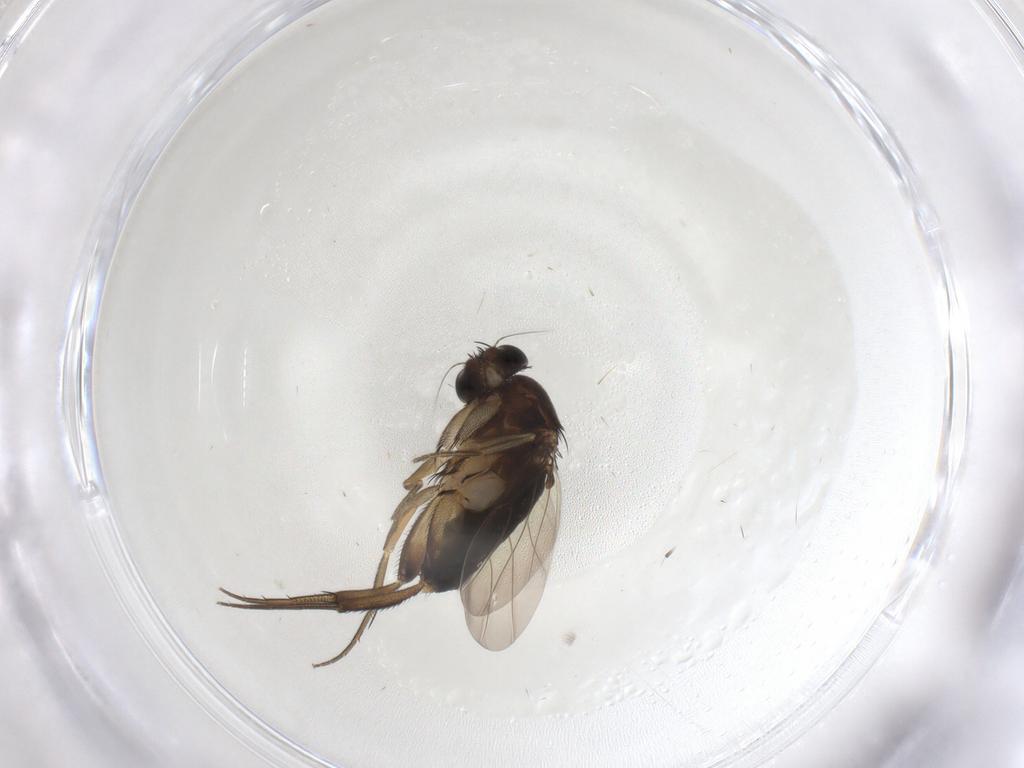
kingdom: Animalia
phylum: Arthropoda
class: Insecta
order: Diptera
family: Phoridae
